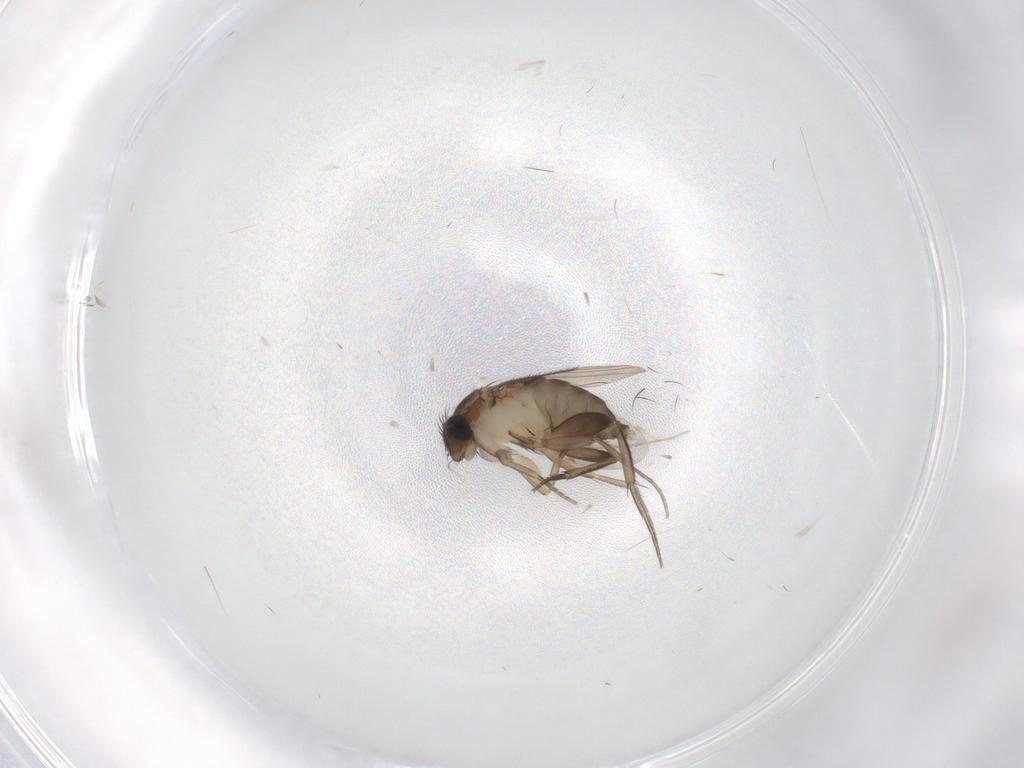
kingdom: Animalia
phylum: Arthropoda
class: Insecta
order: Diptera
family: Phoridae
